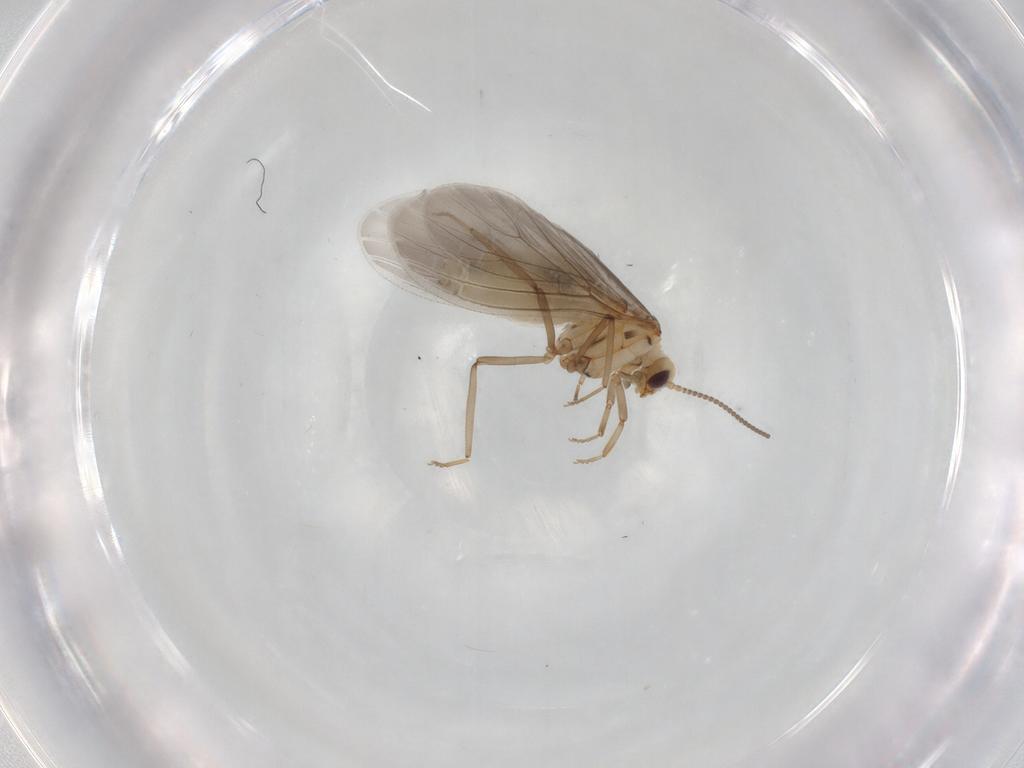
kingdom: Animalia
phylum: Arthropoda
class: Insecta
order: Neuroptera
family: Coniopterygidae
